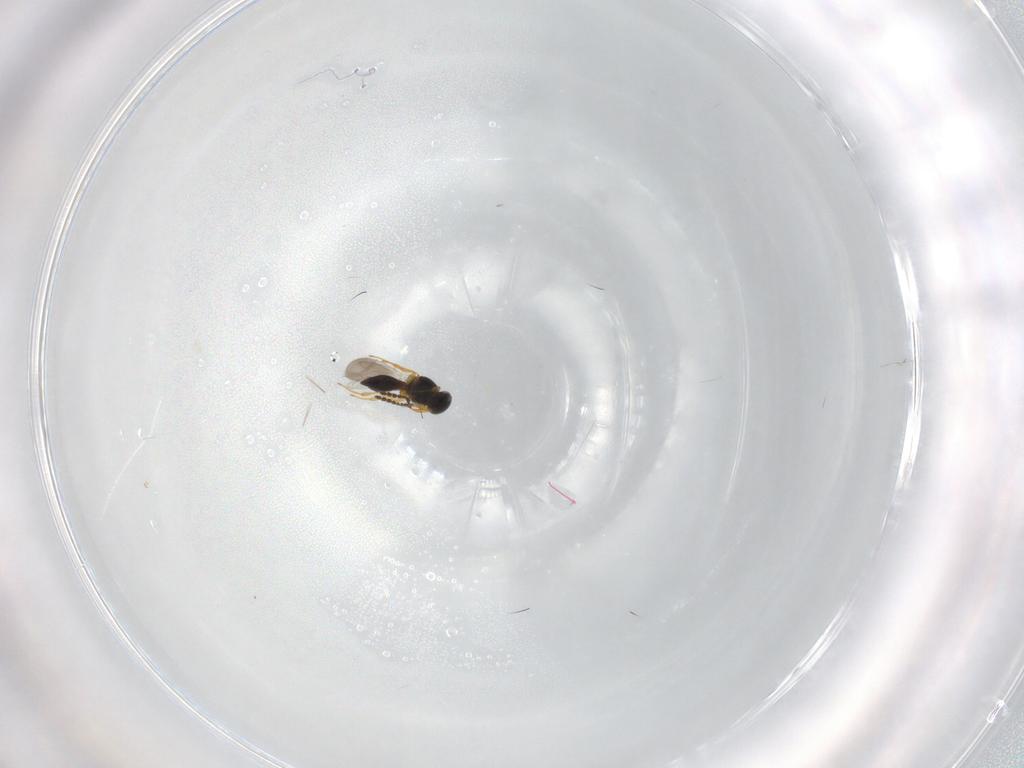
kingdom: Animalia
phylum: Arthropoda
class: Insecta
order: Hymenoptera
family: Platygastridae
